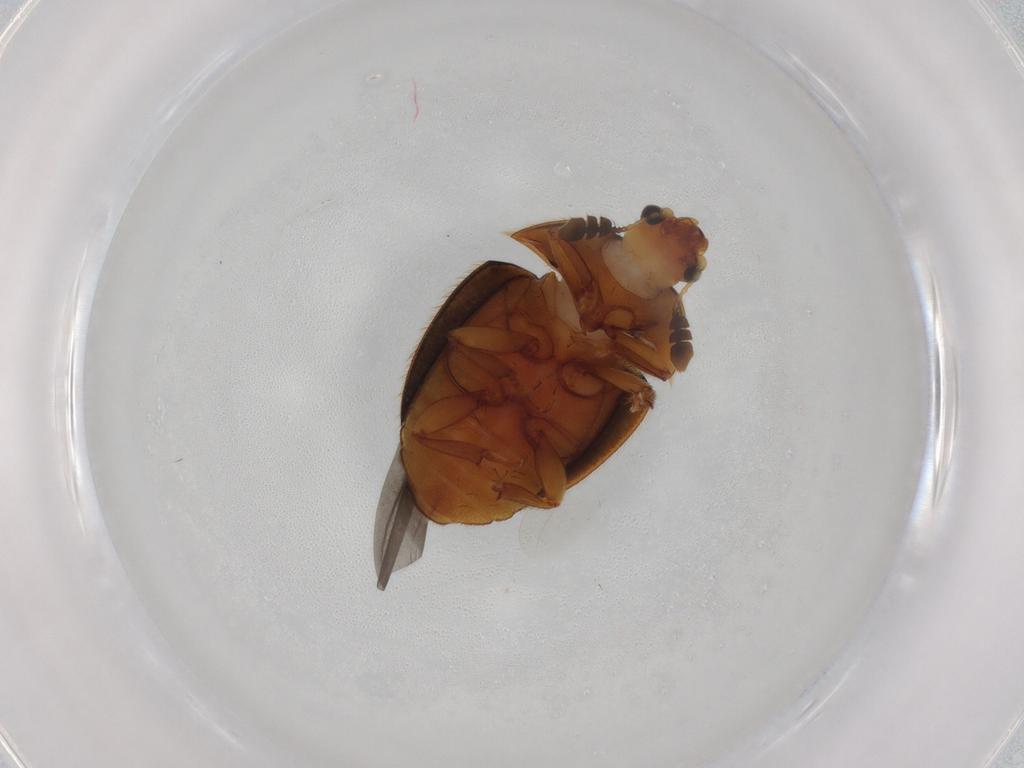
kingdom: Animalia
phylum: Arthropoda
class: Insecta
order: Coleoptera
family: Nitidulidae
